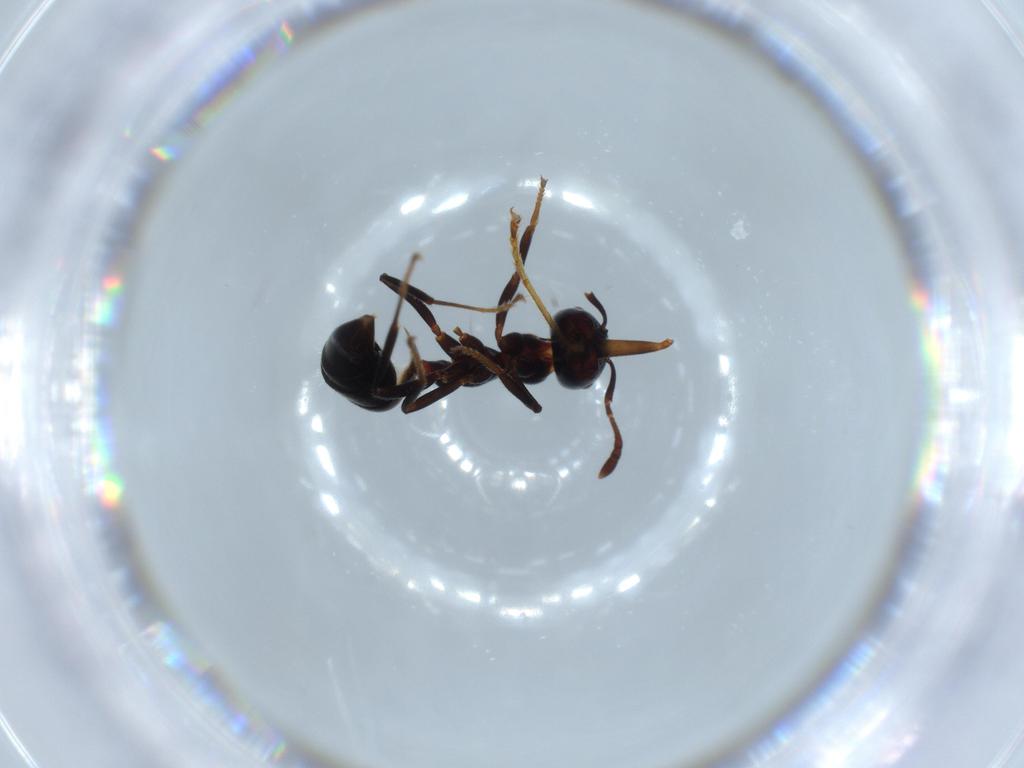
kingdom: Animalia
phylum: Arthropoda
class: Insecta
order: Hymenoptera
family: Formicidae
